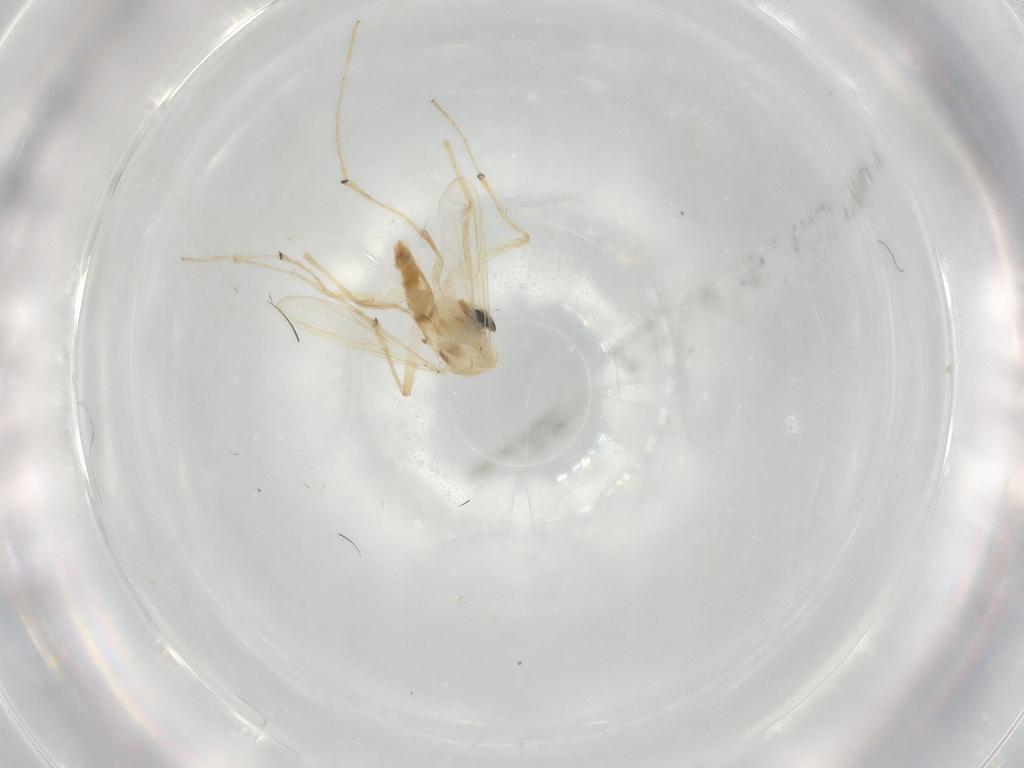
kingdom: Animalia
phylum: Arthropoda
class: Insecta
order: Diptera
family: Chironomidae
